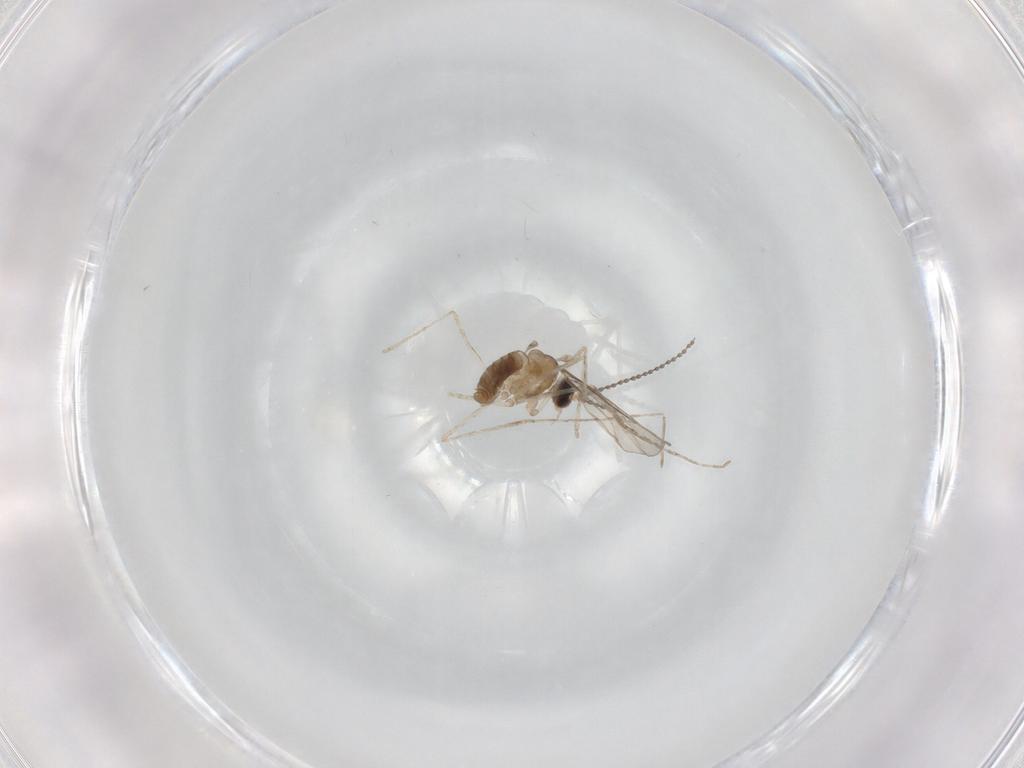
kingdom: Animalia
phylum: Arthropoda
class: Insecta
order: Diptera
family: Cecidomyiidae
